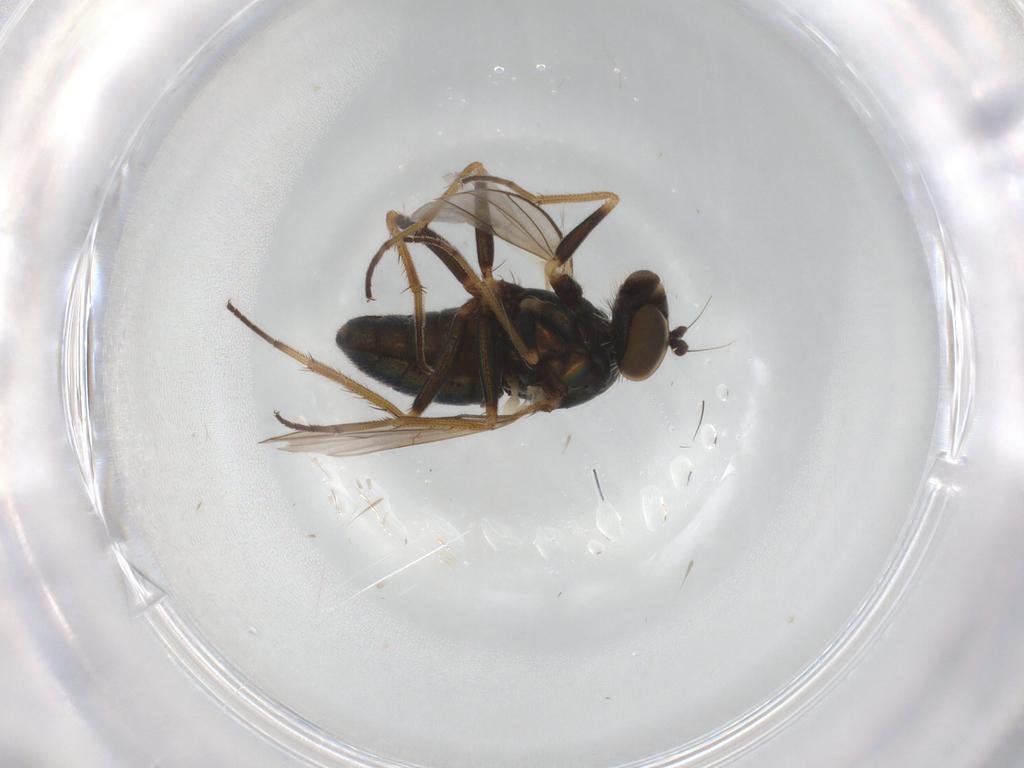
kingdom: Animalia
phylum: Arthropoda
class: Insecta
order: Diptera
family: Drosophilidae
